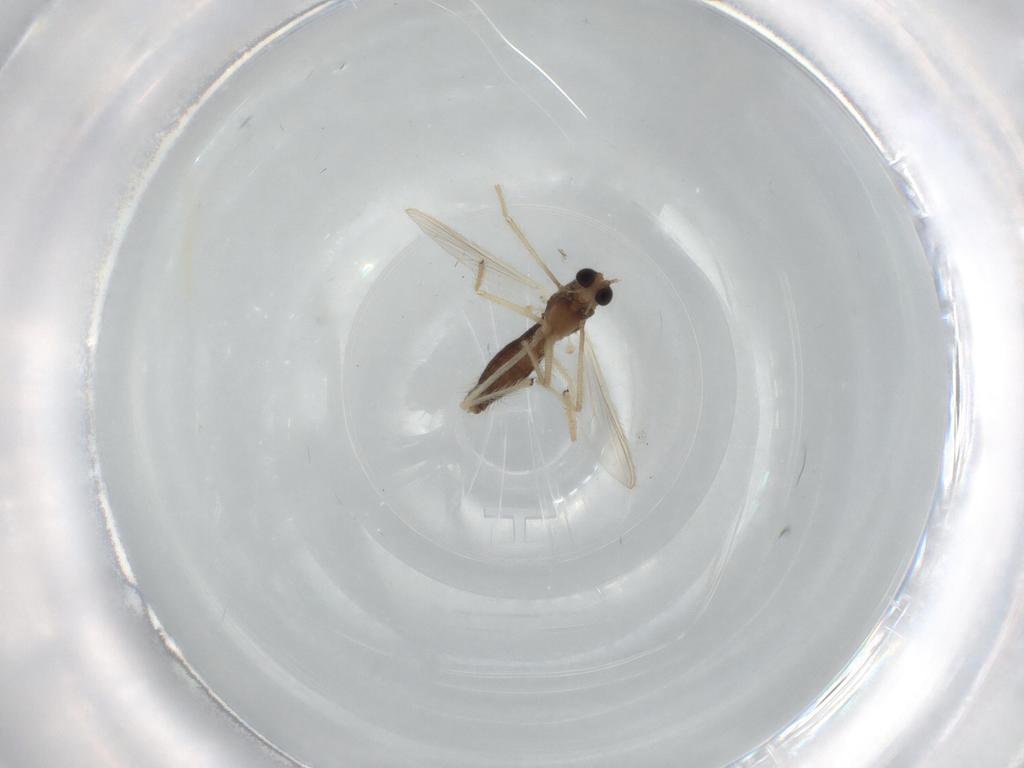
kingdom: Animalia
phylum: Arthropoda
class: Insecta
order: Diptera
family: Chironomidae
